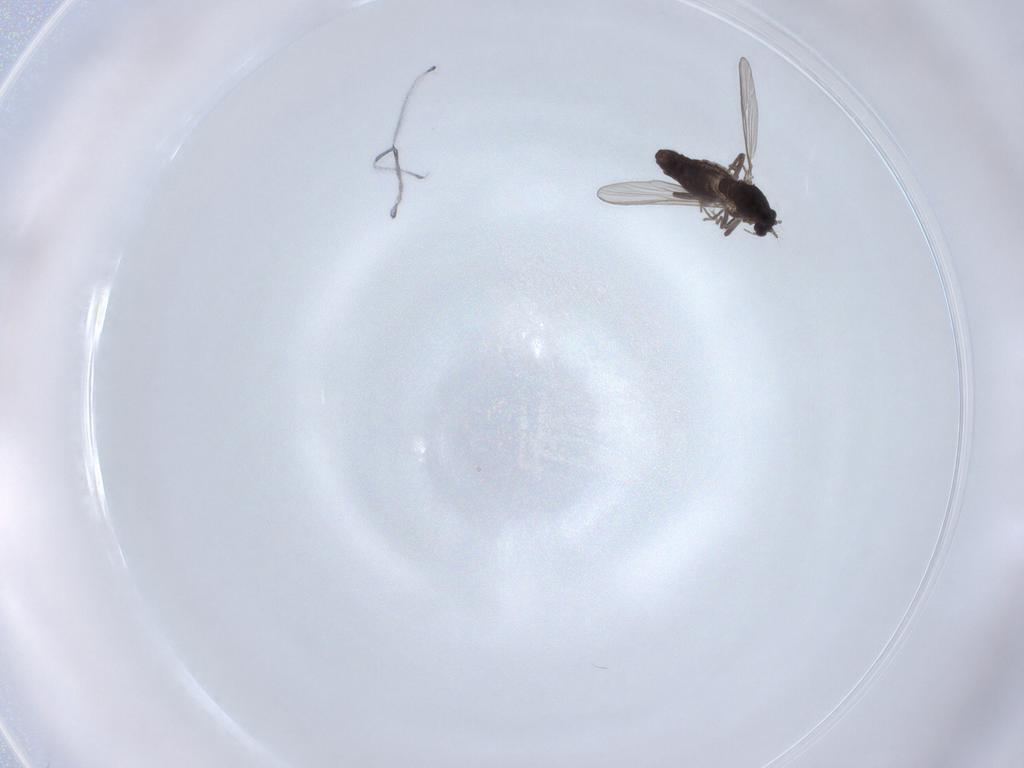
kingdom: Animalia
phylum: Arthropoda
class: Insecta
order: Diptera
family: Chironomidae
